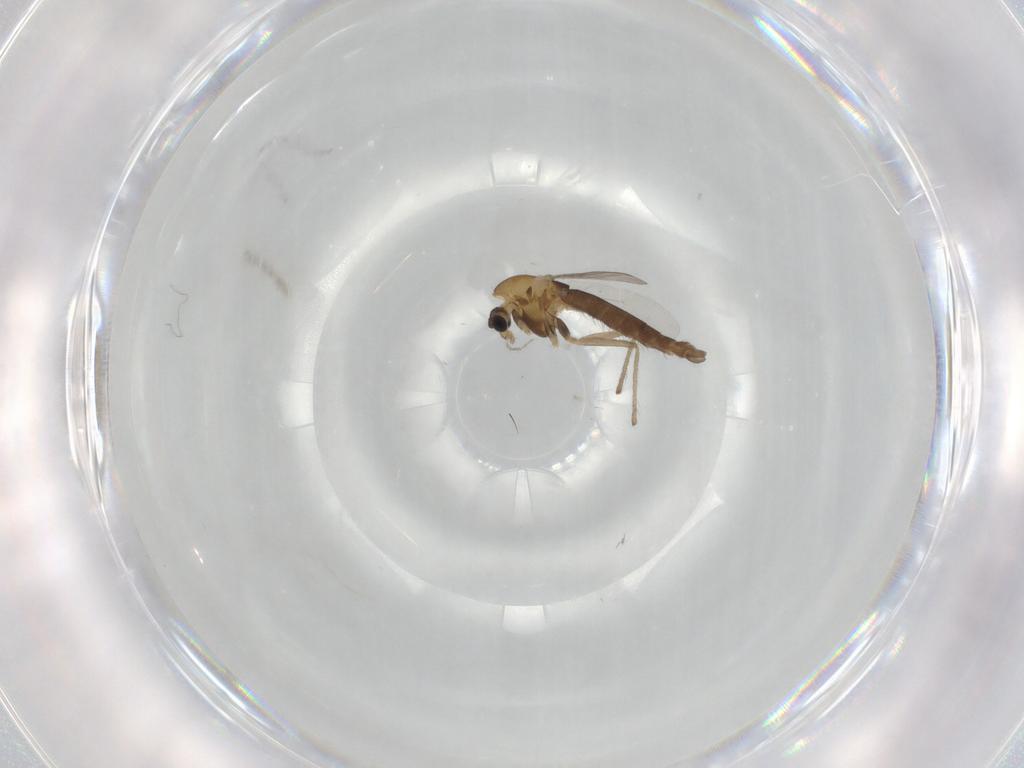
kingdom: Animalia
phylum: Arthropoda
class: Insecta
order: Diptera
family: Chironomidae
